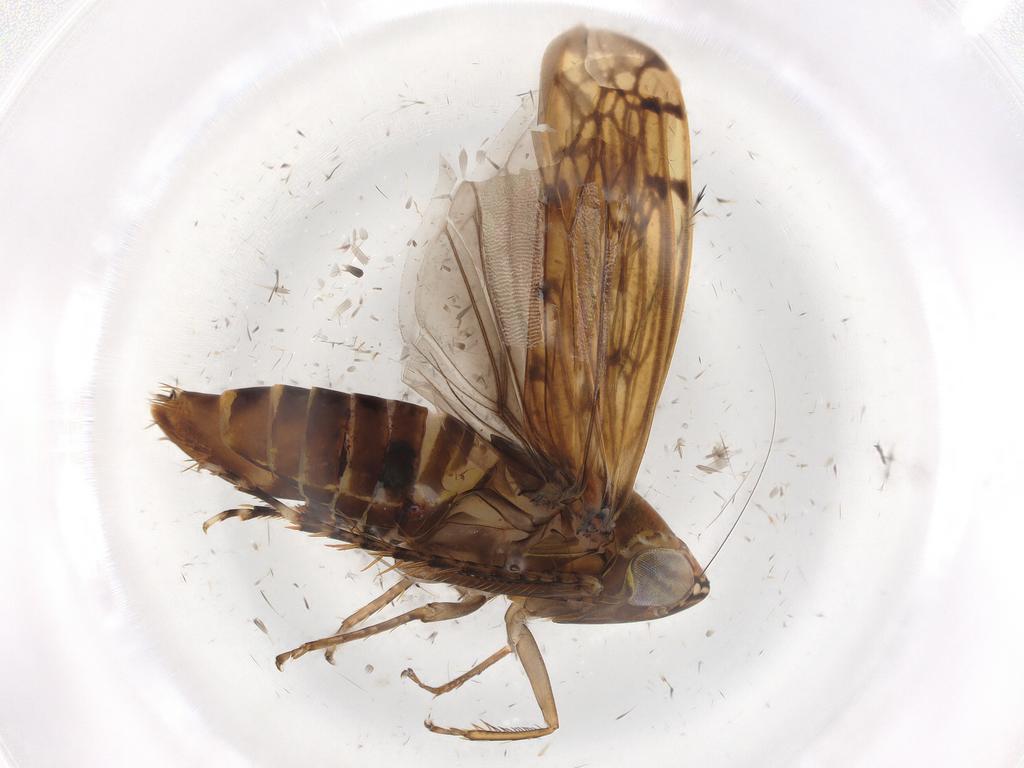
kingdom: Animalia
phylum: Arthropoda
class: Insecta
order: Hemiptera
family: Cicadellidae
